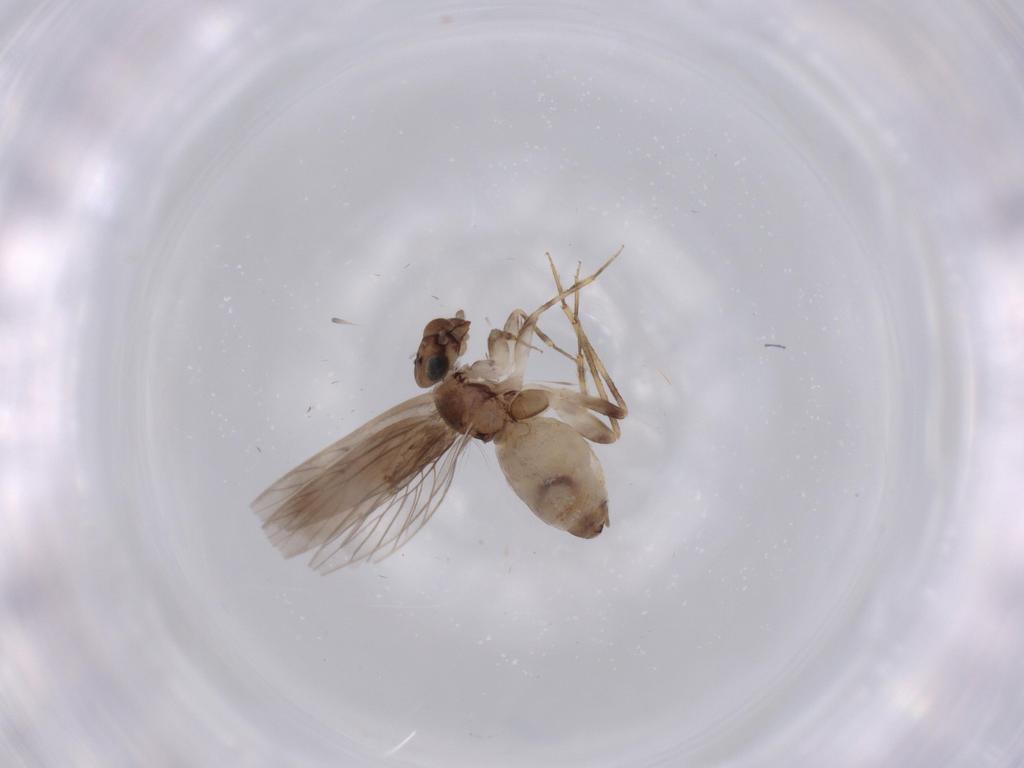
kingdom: Animalia
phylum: Arthropoda
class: Insecta
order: Psocodea
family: Lepidopsocidae
